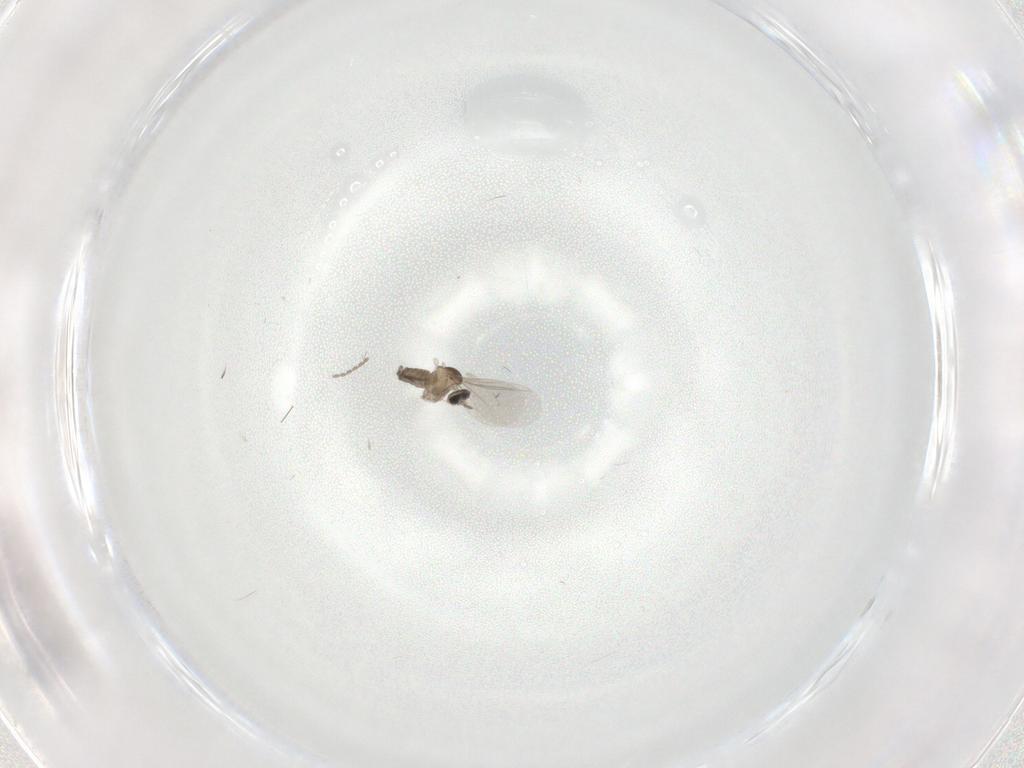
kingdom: Animalia
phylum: Arthropoda
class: Insecta
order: Diptera
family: Cecidomyiidae
